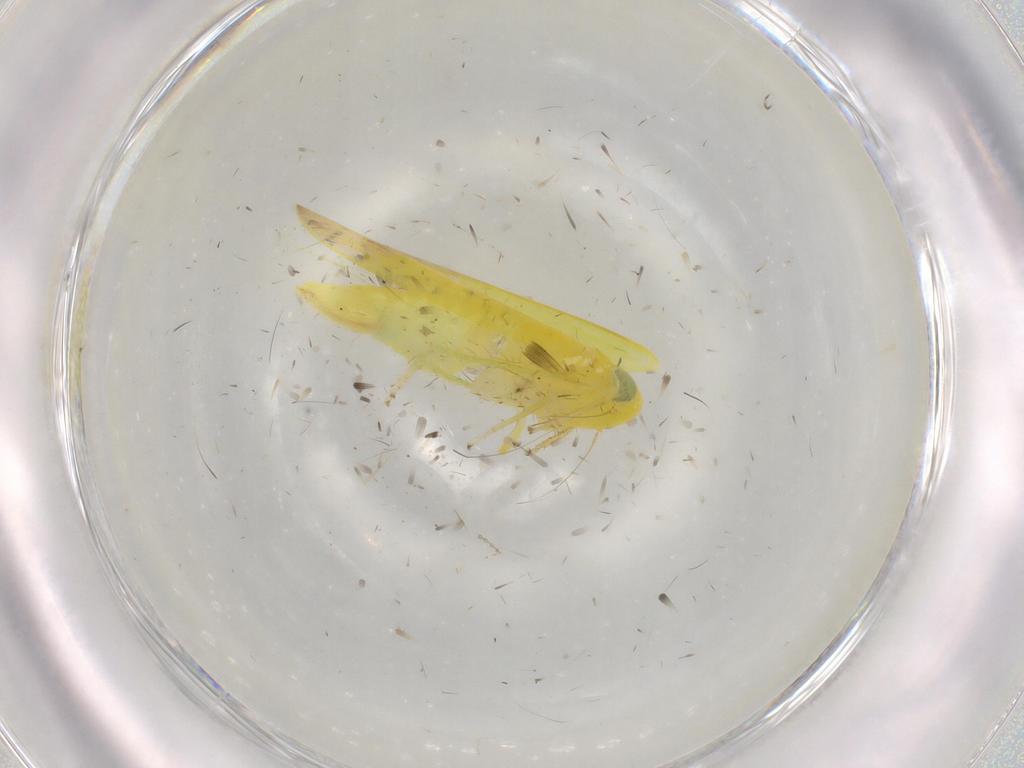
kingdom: Animalia
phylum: Arthropoda
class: Insecta
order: Hemiptera
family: Cicadellidae
